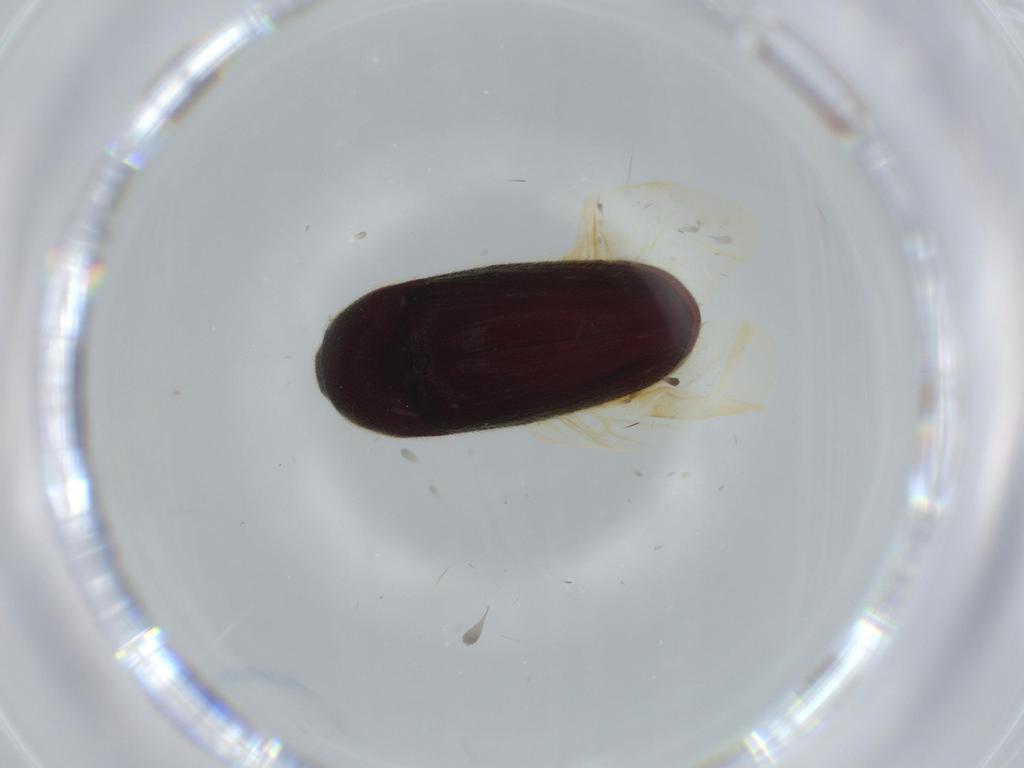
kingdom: Animalia
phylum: Arthropoda
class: Insecta
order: Coleoptera
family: Throscidae
